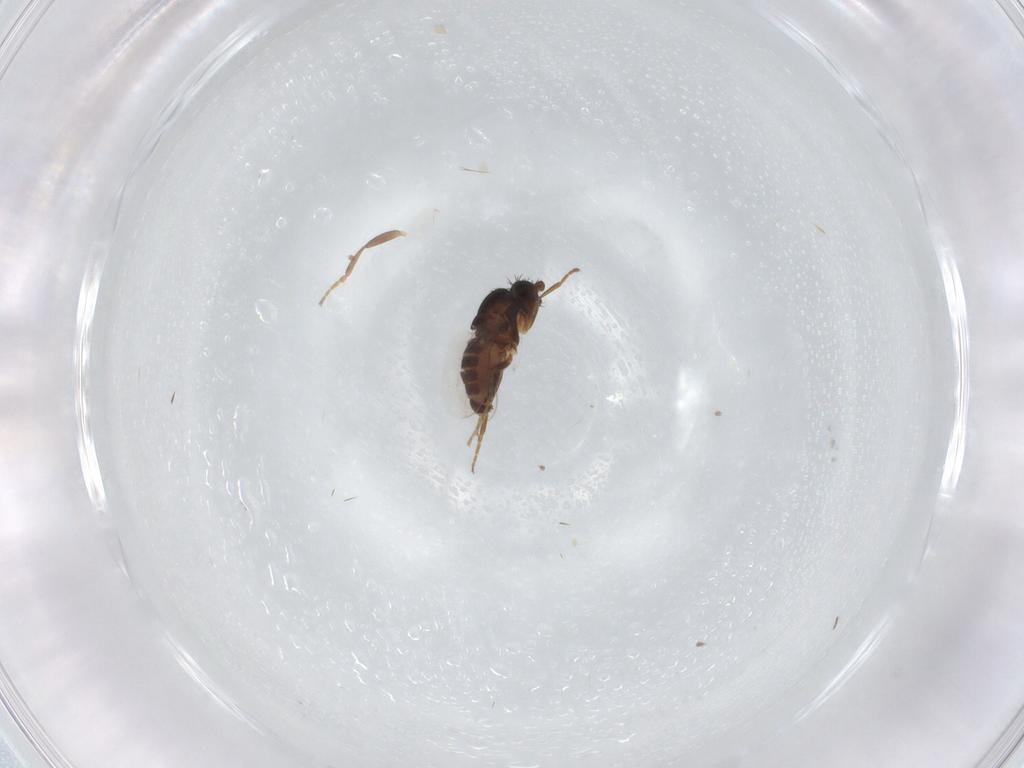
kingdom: Animalia
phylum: Arthropoda
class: Insecta
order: Diptera
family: Sphaeroceridae
